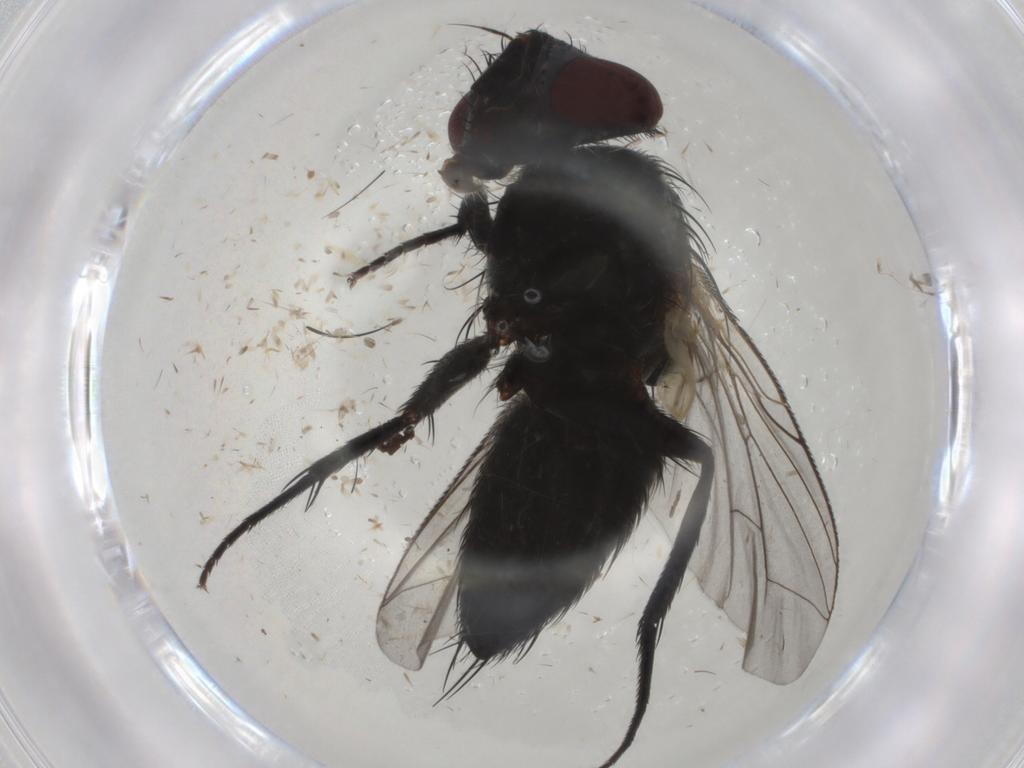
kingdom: Animalia
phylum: Arthropoda
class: Insecta
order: Diptera
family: Sarcophagidae
